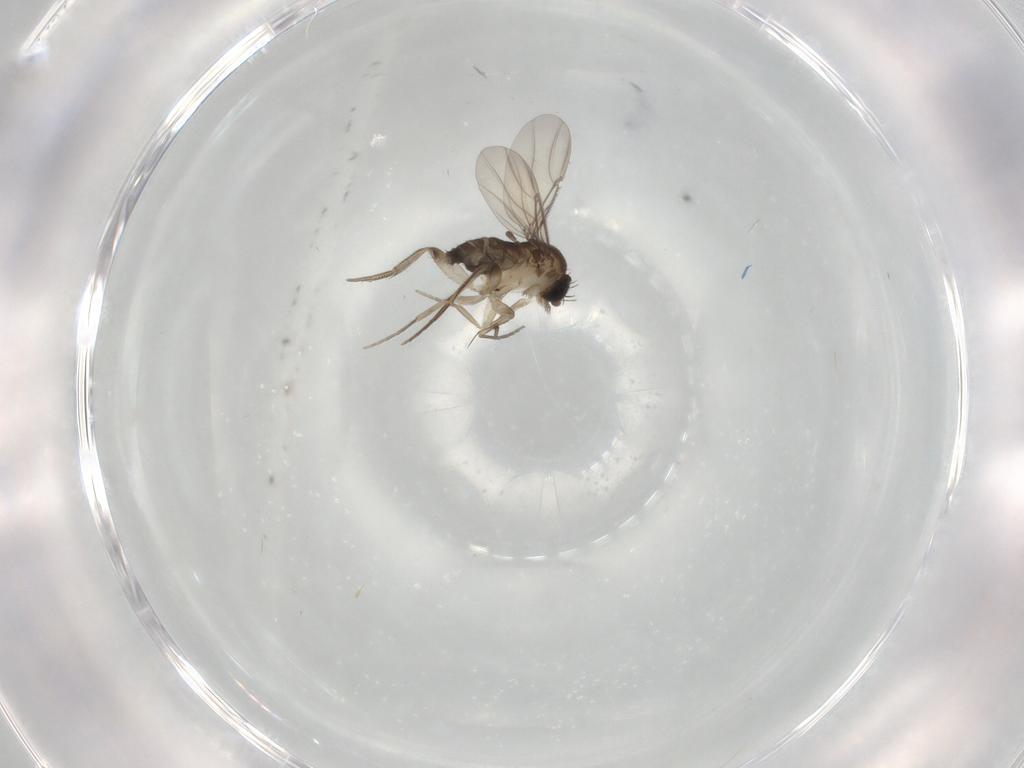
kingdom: Animalia
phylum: Arthropoda
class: Insecta
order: Diptera
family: Phoridae
